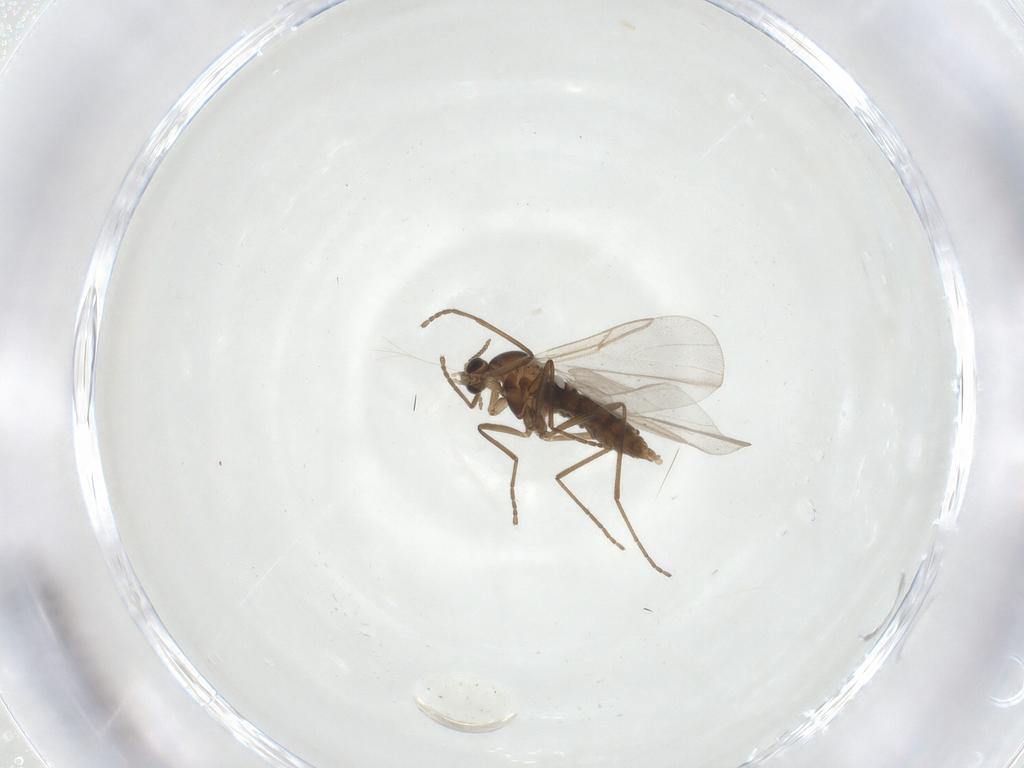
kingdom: Animalia
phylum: Arthropoda
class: Insecta
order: Diptera
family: Cecidomyiidae
